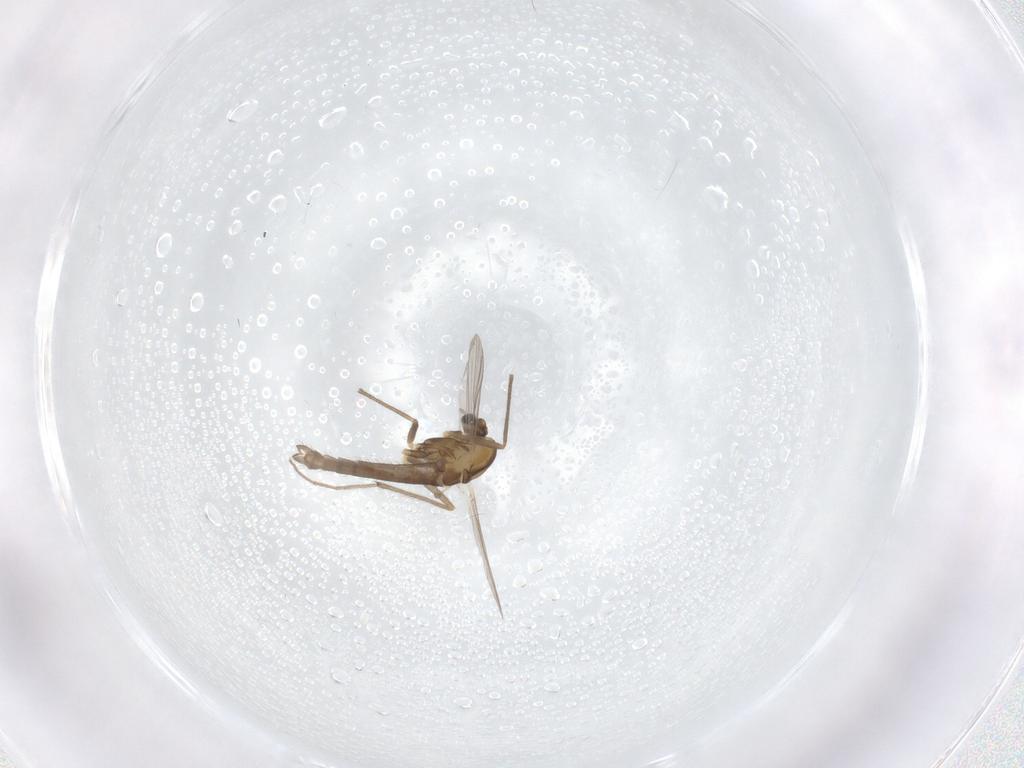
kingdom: Animalia
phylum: Arthropoda
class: Insecta
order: Diptera
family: Chironomidae
